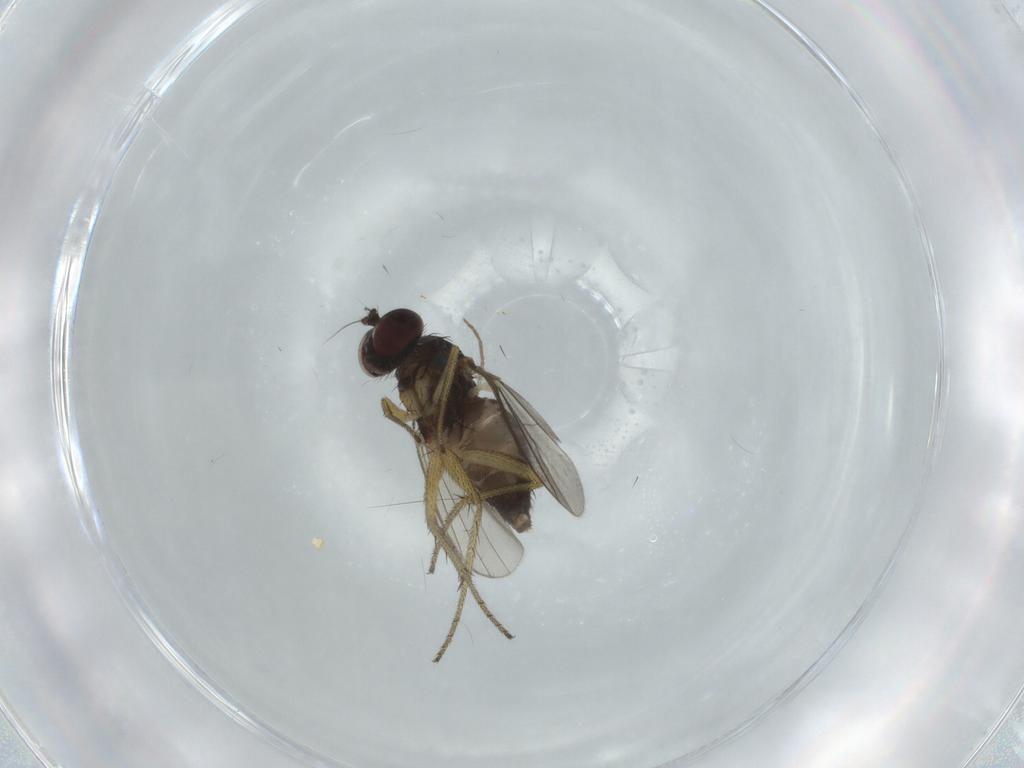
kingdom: Animalia
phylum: Arthropoda
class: Insecta
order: Diptera
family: Dolichopodidae
